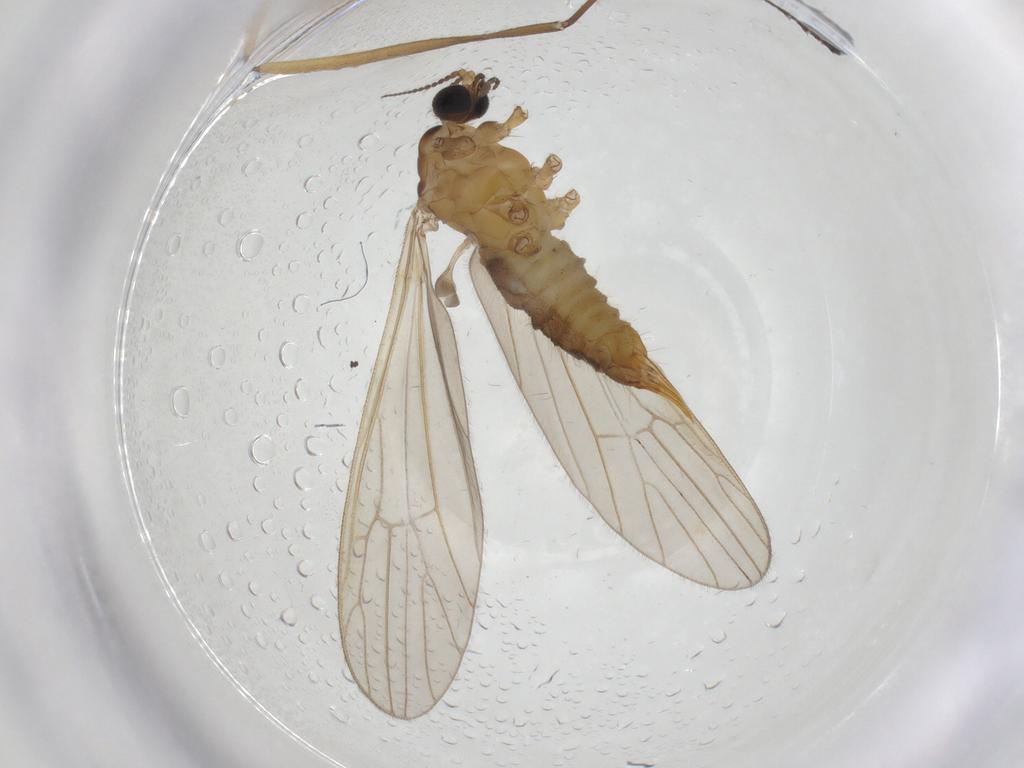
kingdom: Animalia
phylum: Arthropoda
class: Insecta
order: Diptera
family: Limoniidae
